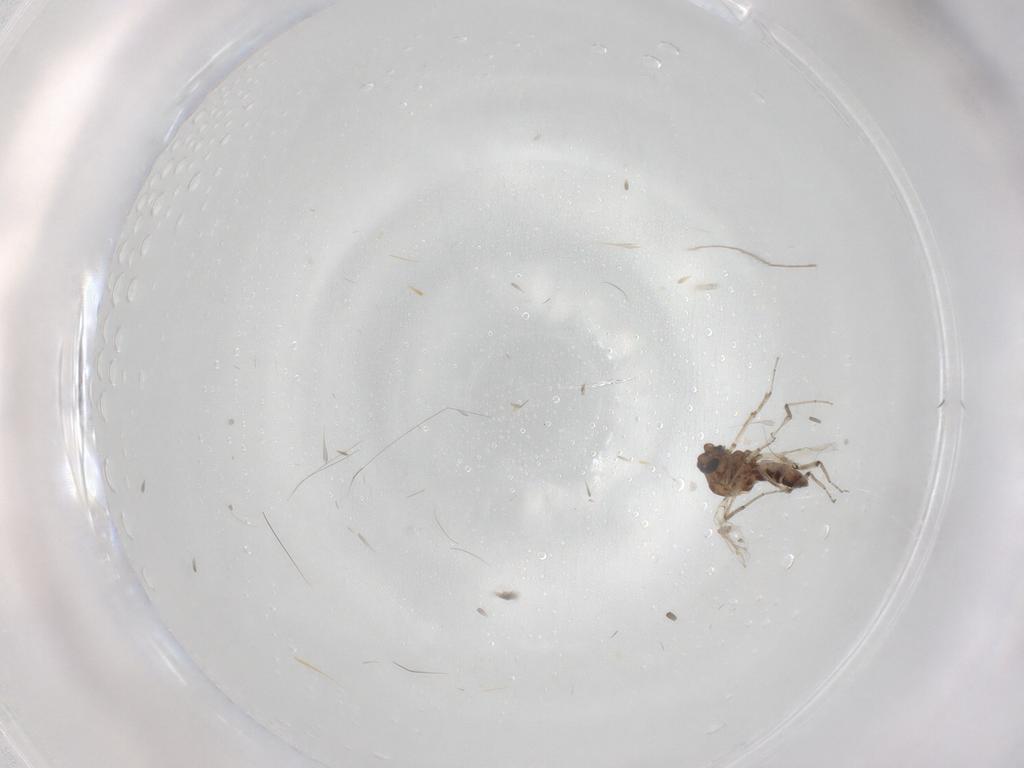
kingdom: Animalia
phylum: Arthropoda
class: Insecta
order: Diptera
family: Ceratopogonidae
